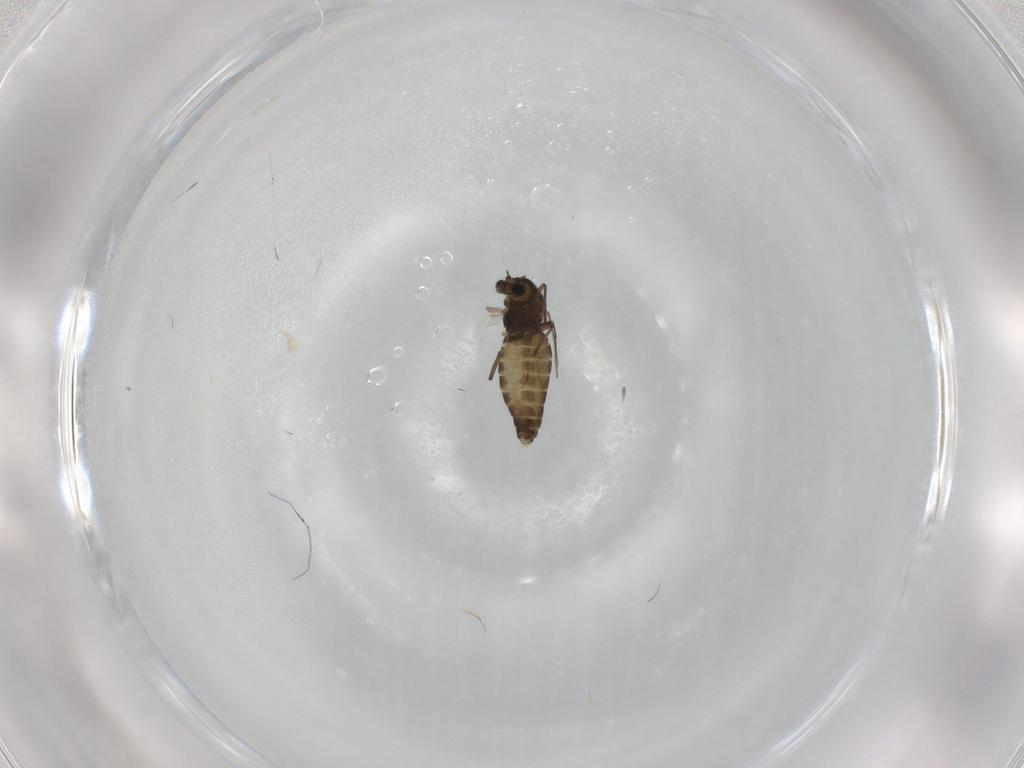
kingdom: Animalia
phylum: Arthropoda
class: Insecta
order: Diptera
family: Chironomidae
